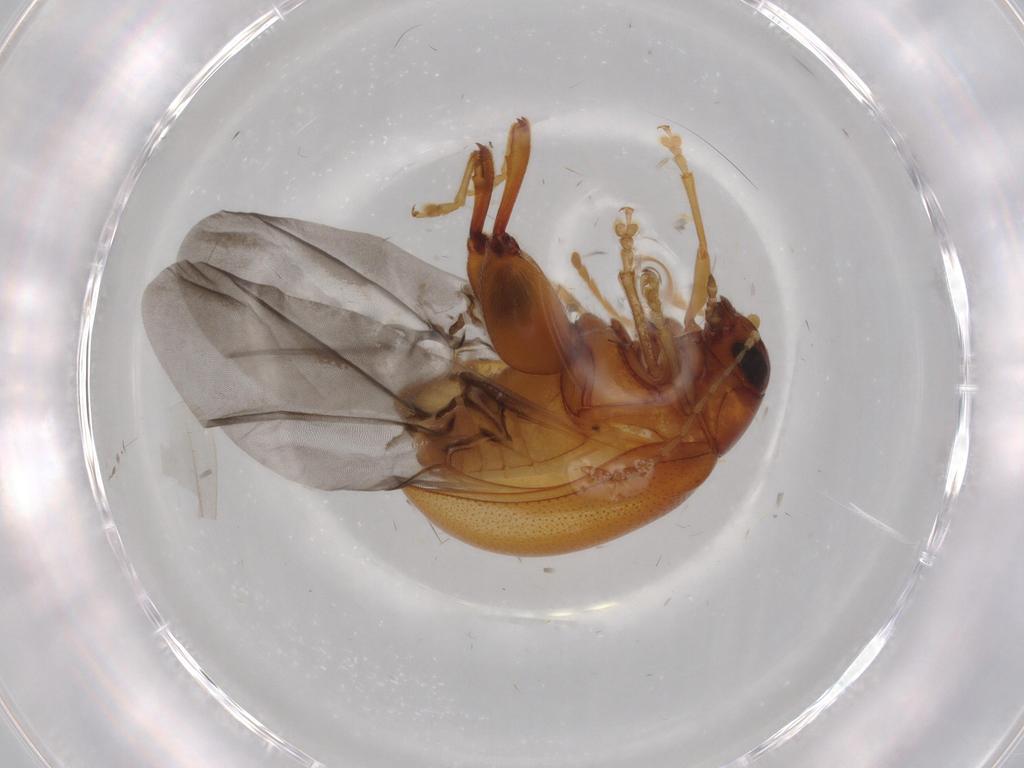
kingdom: Animalia
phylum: Arthropoda
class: Insecta
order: Coleoptera
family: Chrysomelidae
